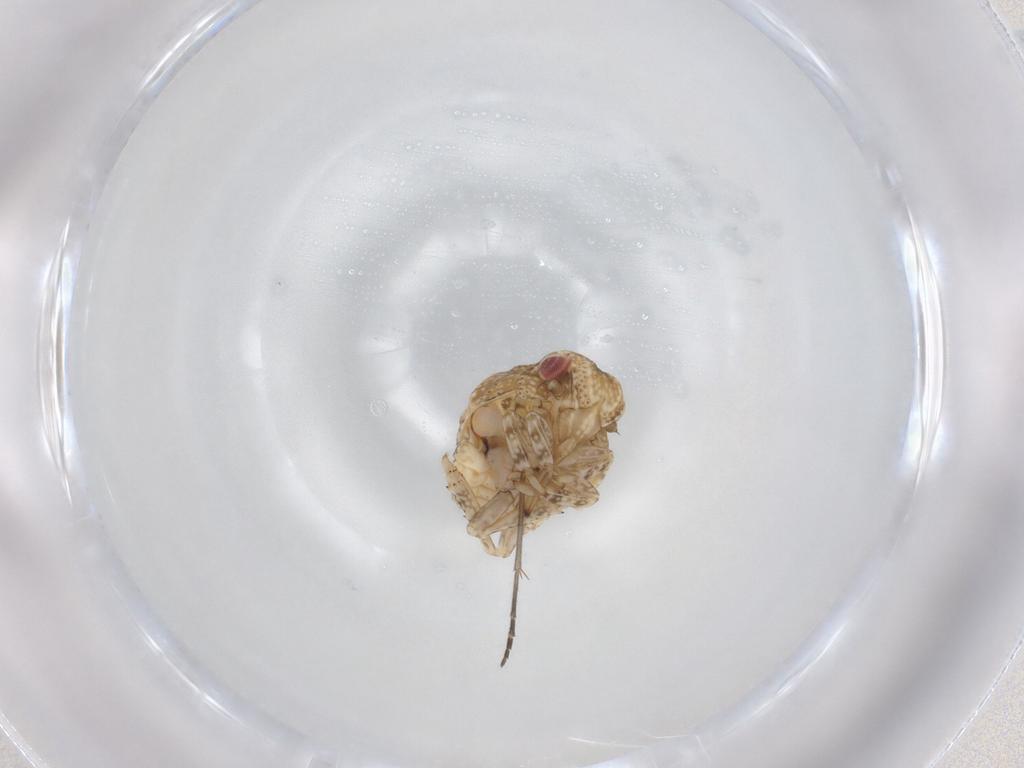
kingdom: Animalia
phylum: Arthropoda
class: Insecta
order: Hemiptera
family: Acanaloniidae
